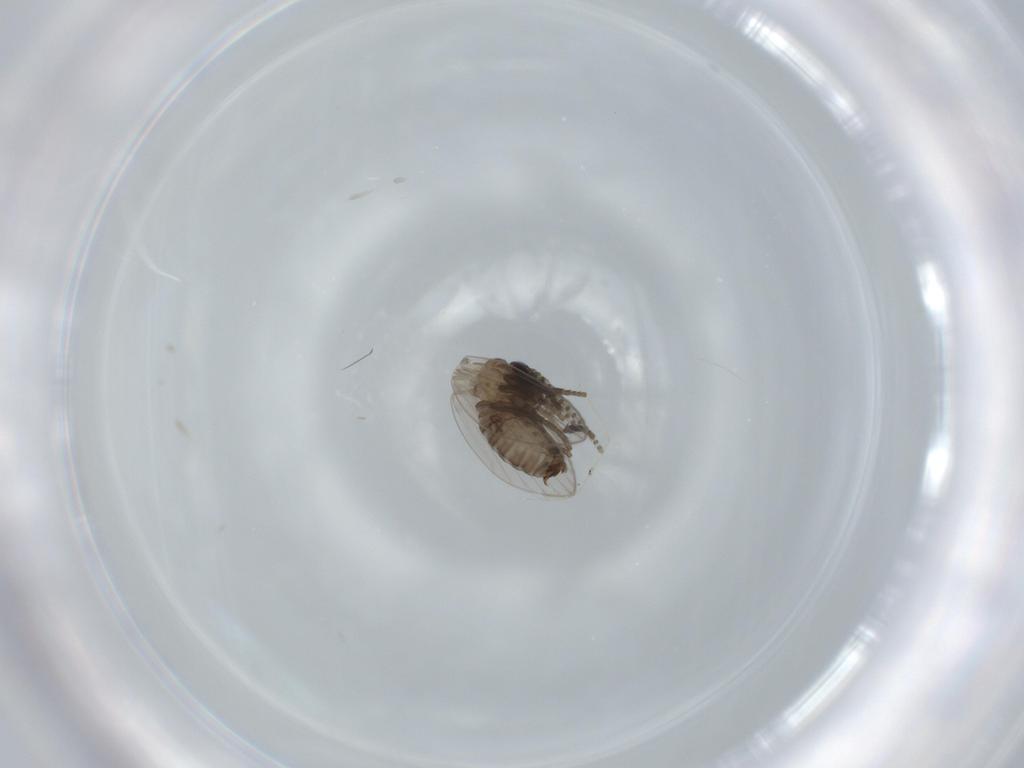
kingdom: Animalia
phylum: Arthropoda
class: Insecta
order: Diptera
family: Psychodidae
